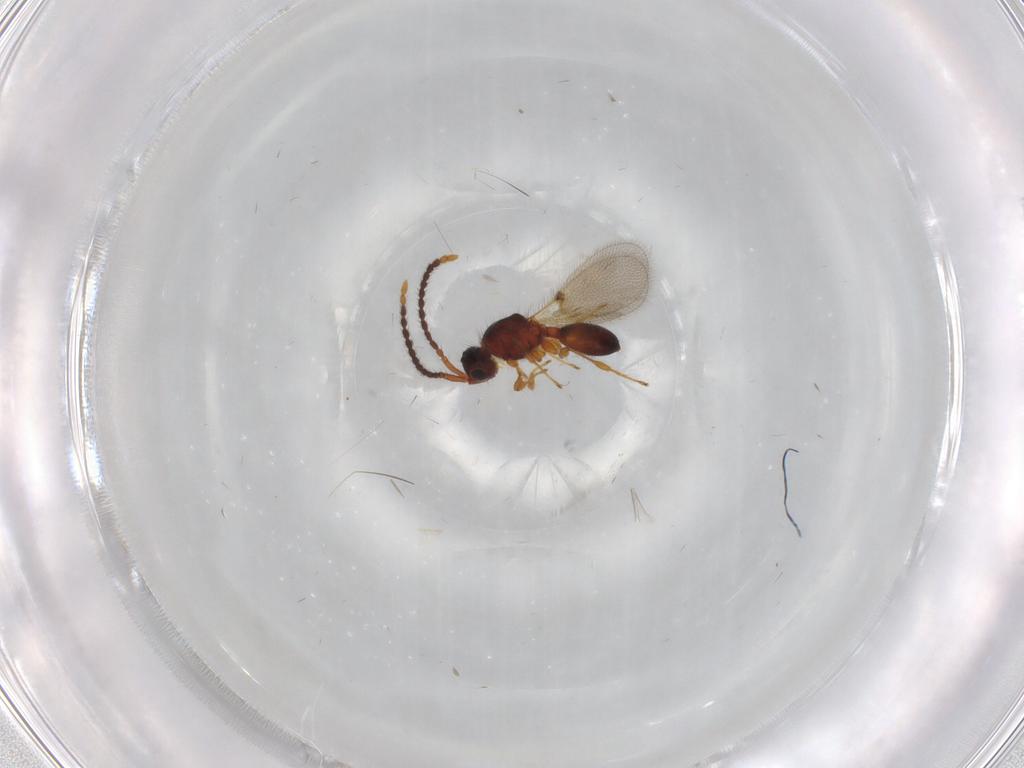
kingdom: Animalia
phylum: Arthropoda
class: Insecta
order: Hymenoptera
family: Diapriidae
